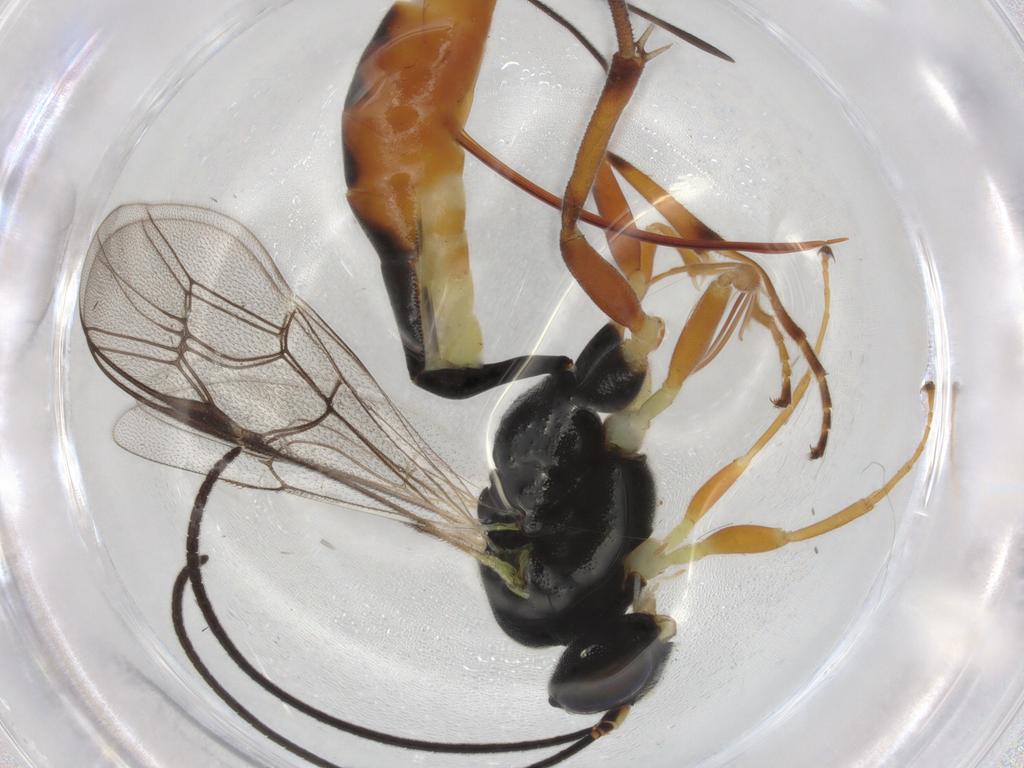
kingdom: Animalia
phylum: Arthropoda
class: Insecta
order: Hymenoptera
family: Ichneumonidae
